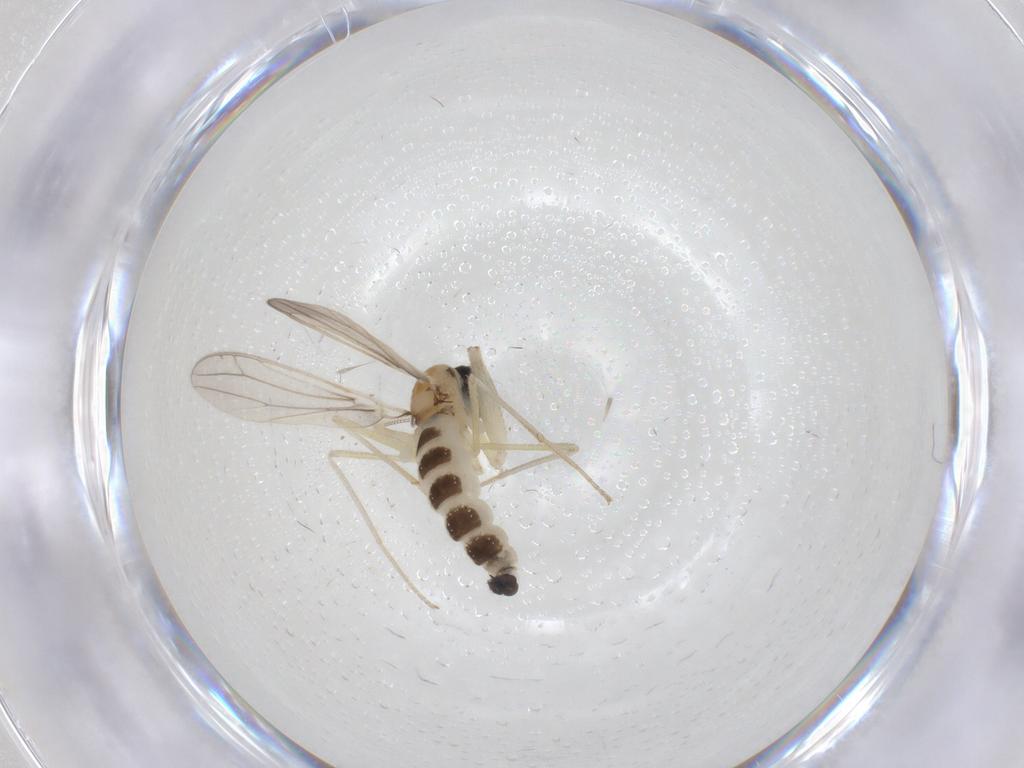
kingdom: Animalia
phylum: Arthropoda
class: Insecta
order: Diptera
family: Empididae
